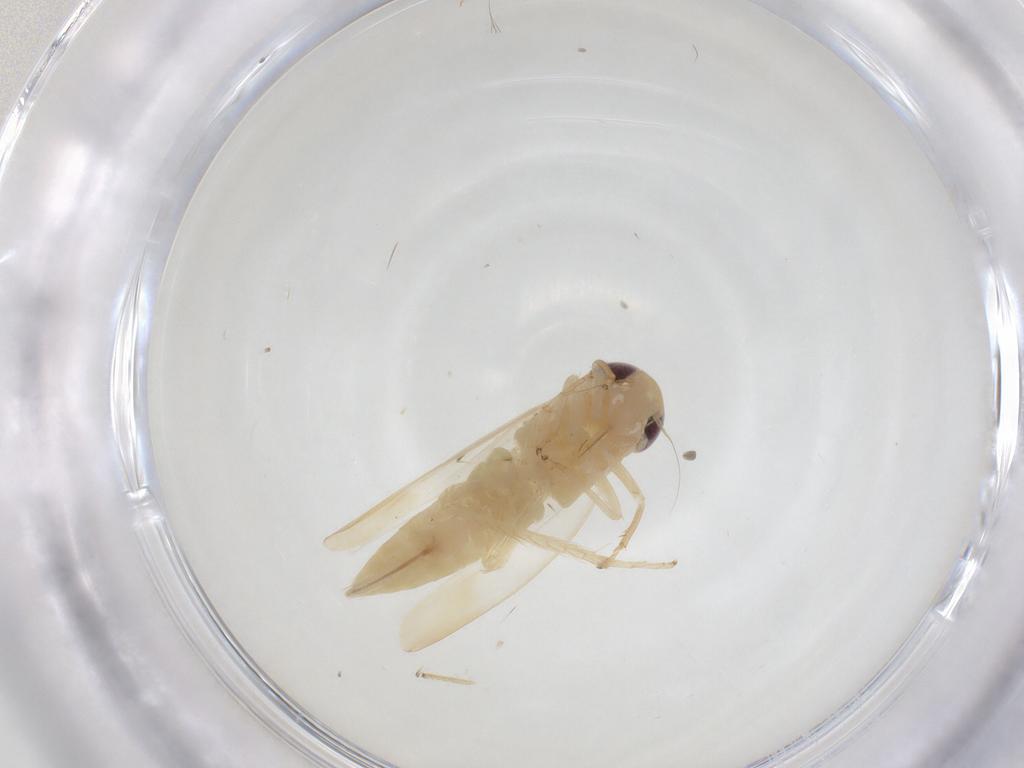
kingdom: Animalia
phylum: Arthropoda
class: Insecta
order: Hemiptera
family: Cicadellidae
